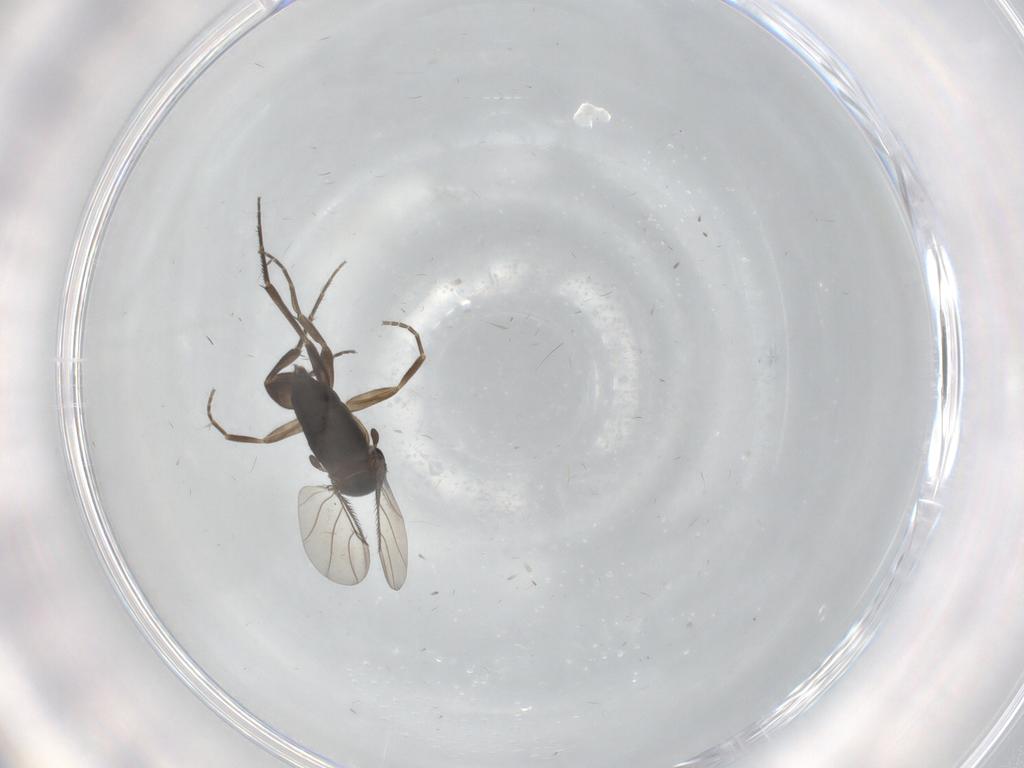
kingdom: Animalia
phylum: Arthropoda
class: Insecta
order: Diptera
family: Phoridae
